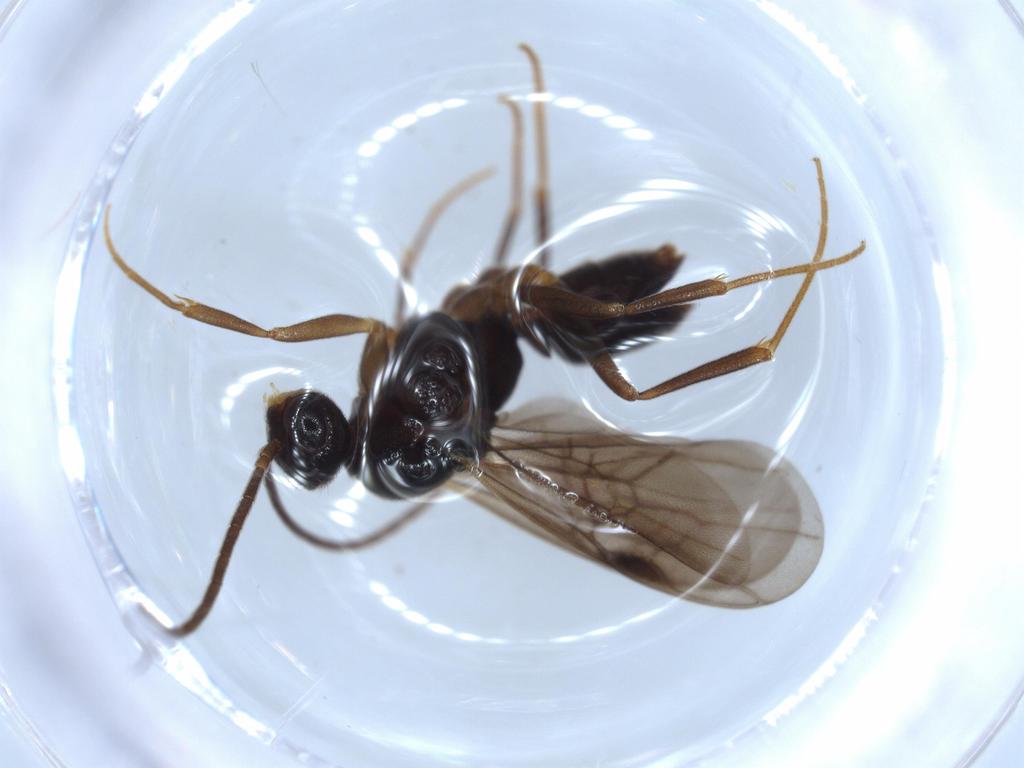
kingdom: Animalia
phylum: Arthropoda
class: Insecta
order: Hymenoptera
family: Formicidae
